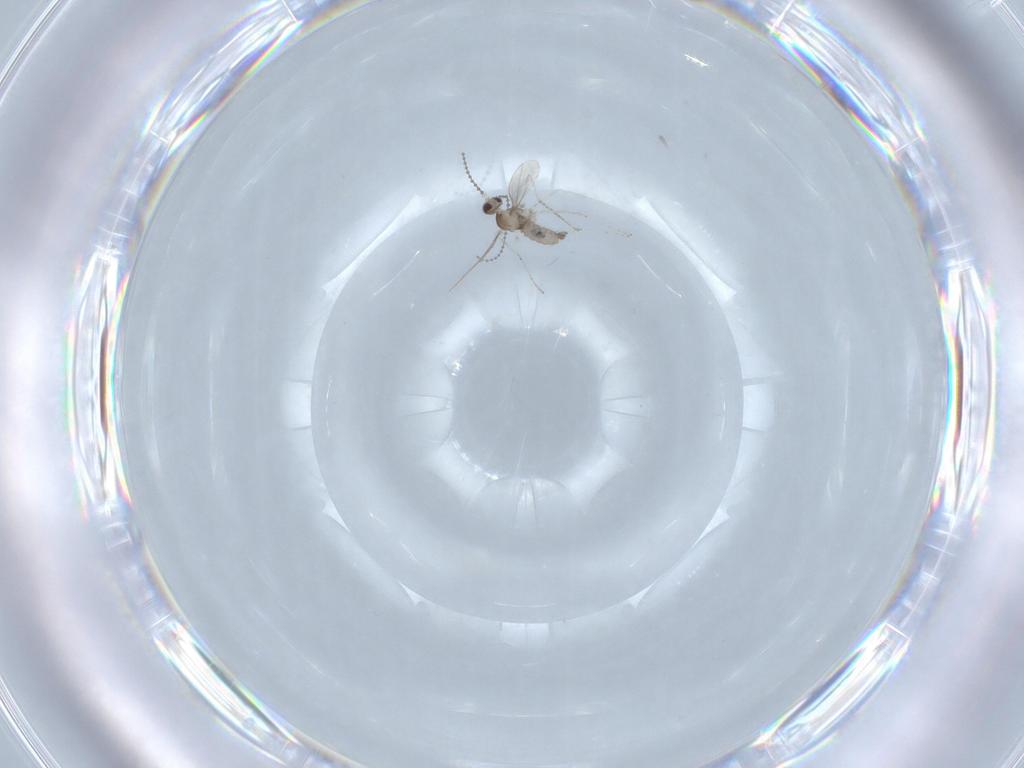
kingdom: Animalia
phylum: Arthropoda
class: Insecta
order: Diptera
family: Cecidomyiidae
